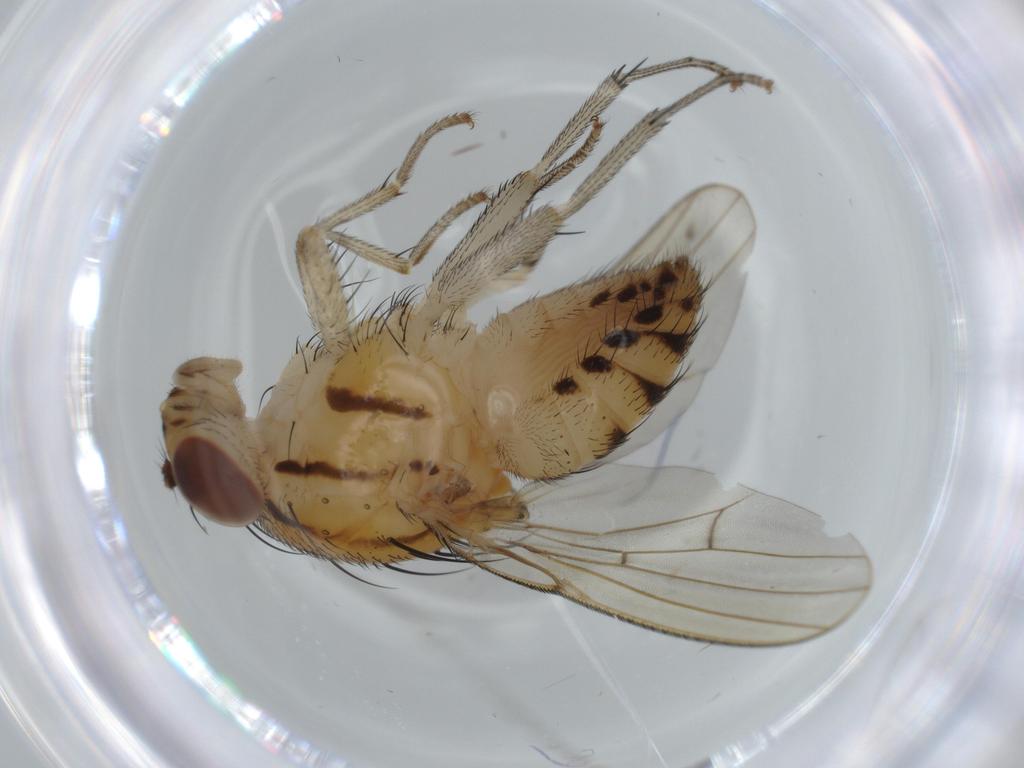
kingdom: Animalia
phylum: Arthropoda
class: Insecta
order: Diptera
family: Lauxaniidae
